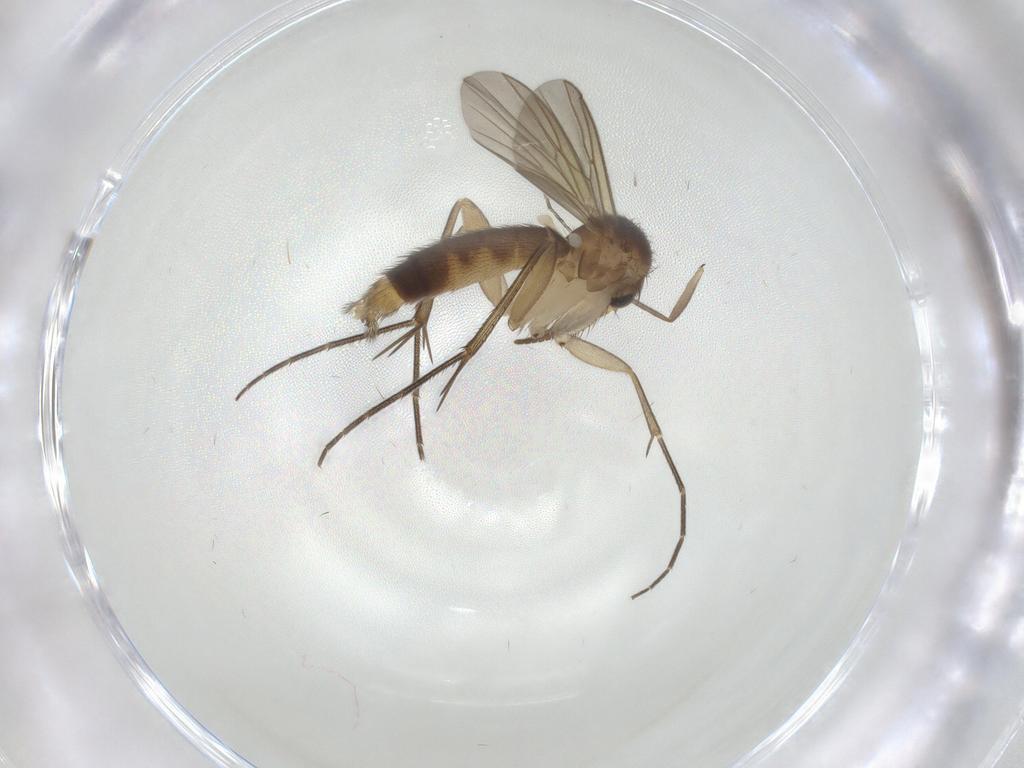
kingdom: Animalia
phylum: Arthropoda
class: Insecta
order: Diptera
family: Sciaridae
